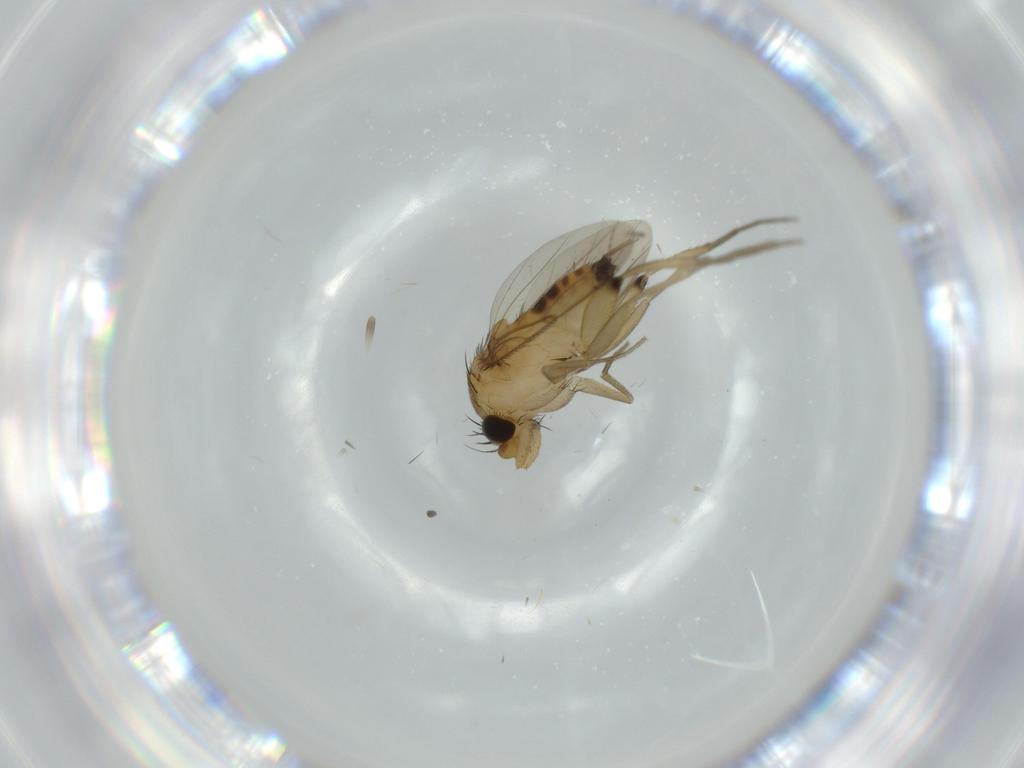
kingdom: Animalia
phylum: Arthropoda
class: Insecta
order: Diptera
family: Phoridae
